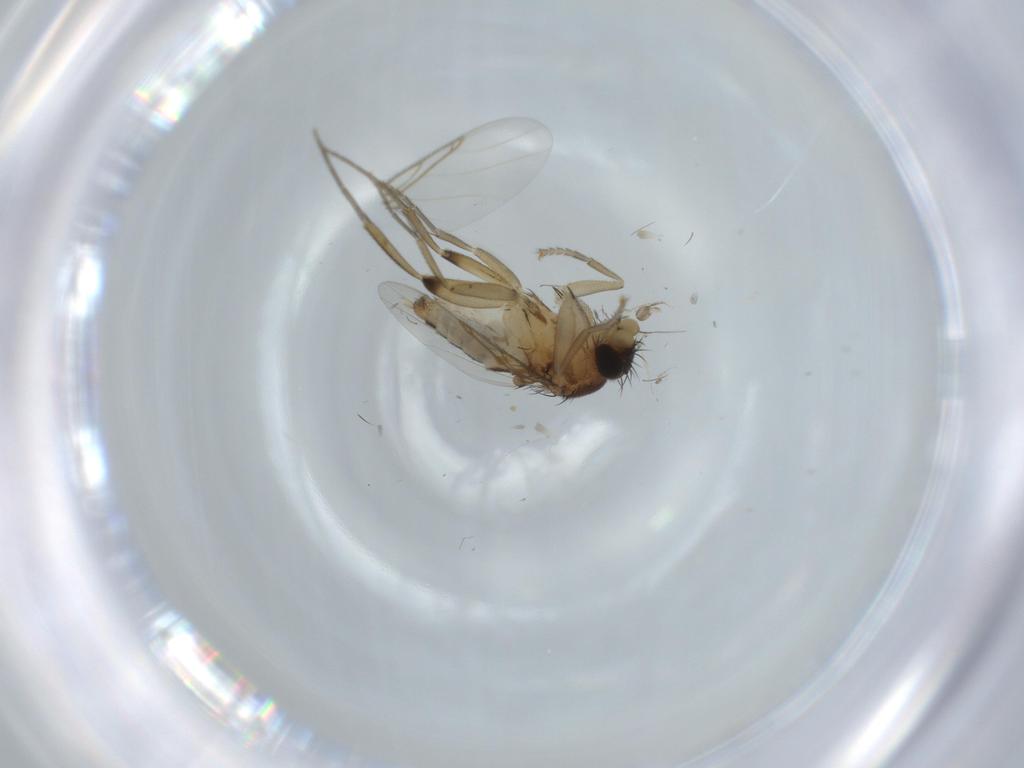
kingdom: Animalia
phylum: Arthropoda
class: Insecta
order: Diptera
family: Phoridae
